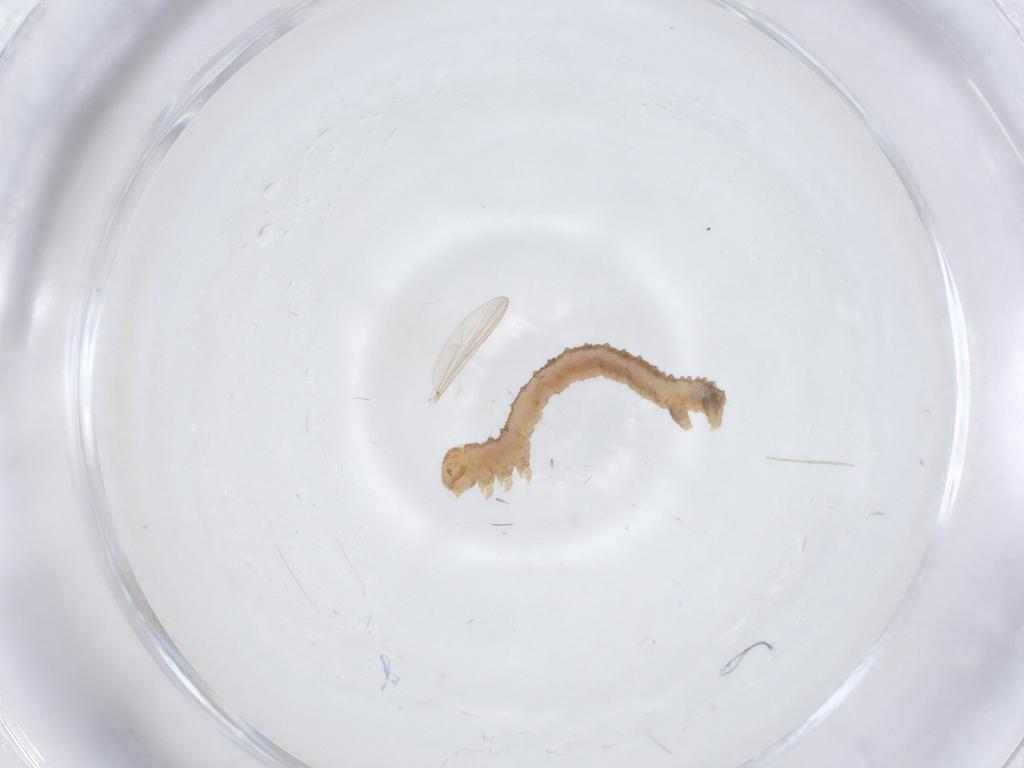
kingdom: Animalia
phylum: Arthropoda
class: Insecta
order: Lepidoptera
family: Geometridae
